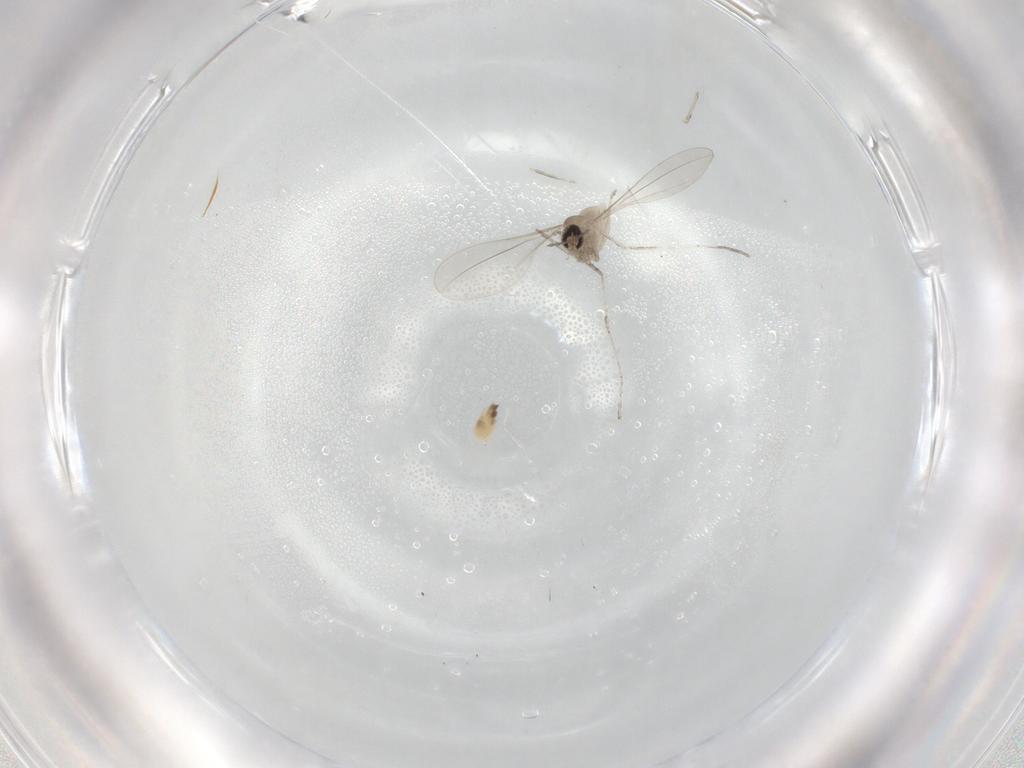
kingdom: Animalia
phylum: Arthropoda
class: Insecta
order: Diptera
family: Cecidomyiidae
